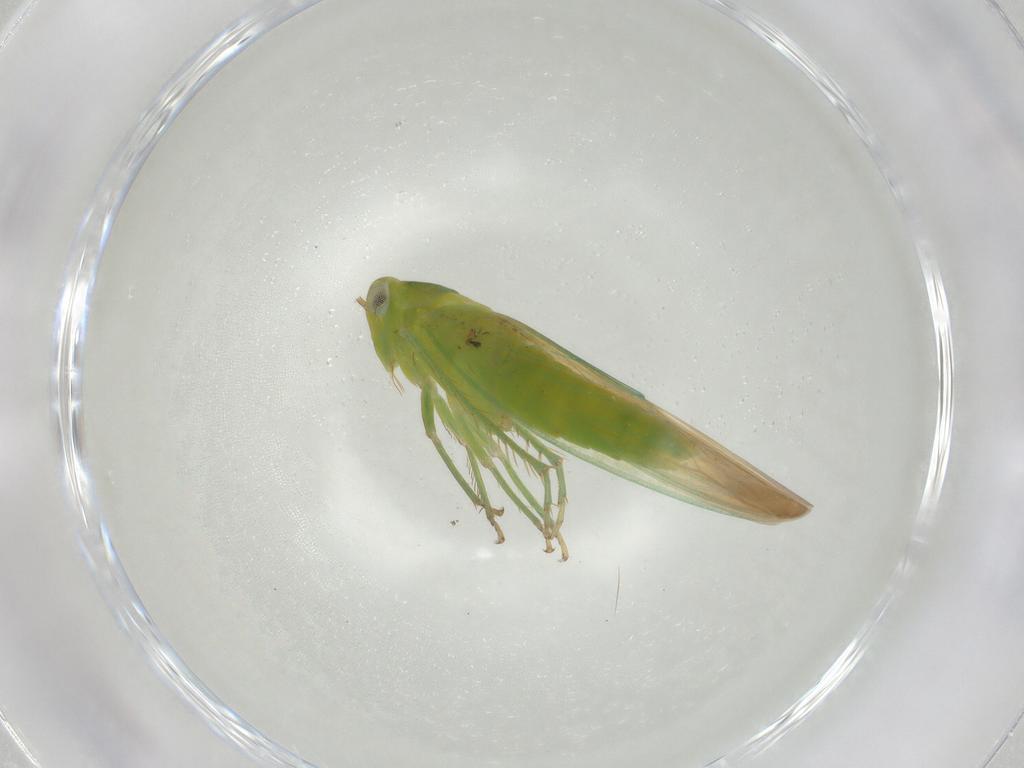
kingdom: Animalia
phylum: Arthropoda
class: Insecta
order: Hemiptera
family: Cicadellidae
